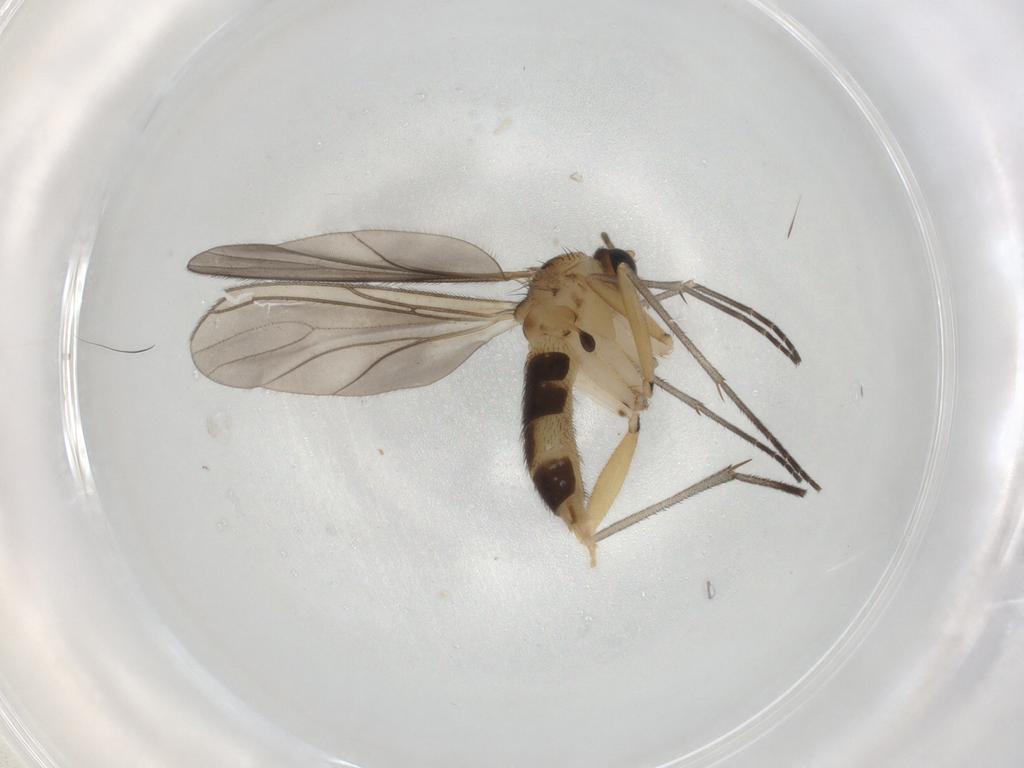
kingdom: Animalia
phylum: Arthropoda
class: Insecta
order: Diptera
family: Sciaridae
